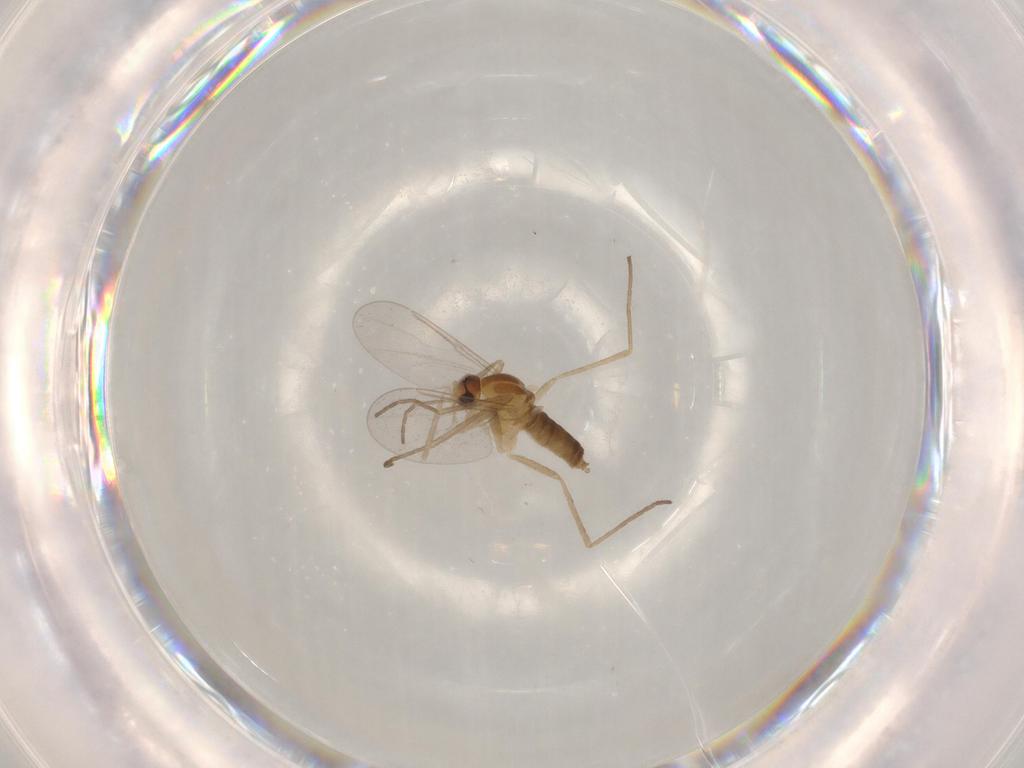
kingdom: Animalia
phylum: Arthropoda
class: Insecta
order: Diptera
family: Cecidomyiidae
